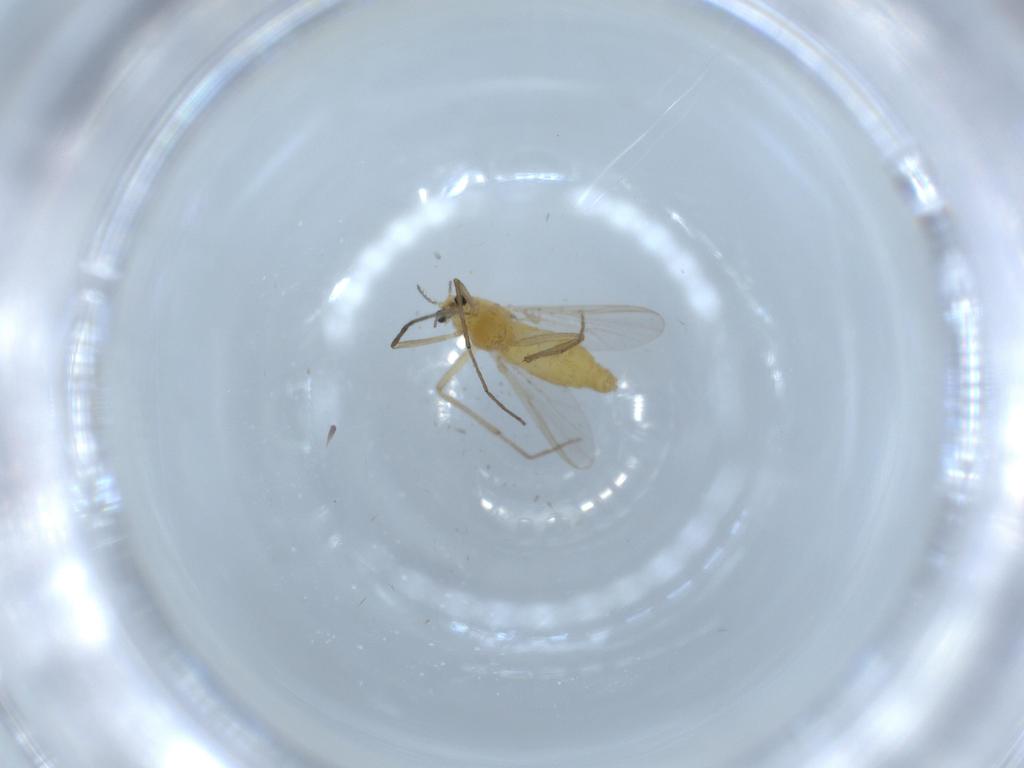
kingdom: Animalia
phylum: Arthropoda
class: Insecta
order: Diptera
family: Chironomidae
